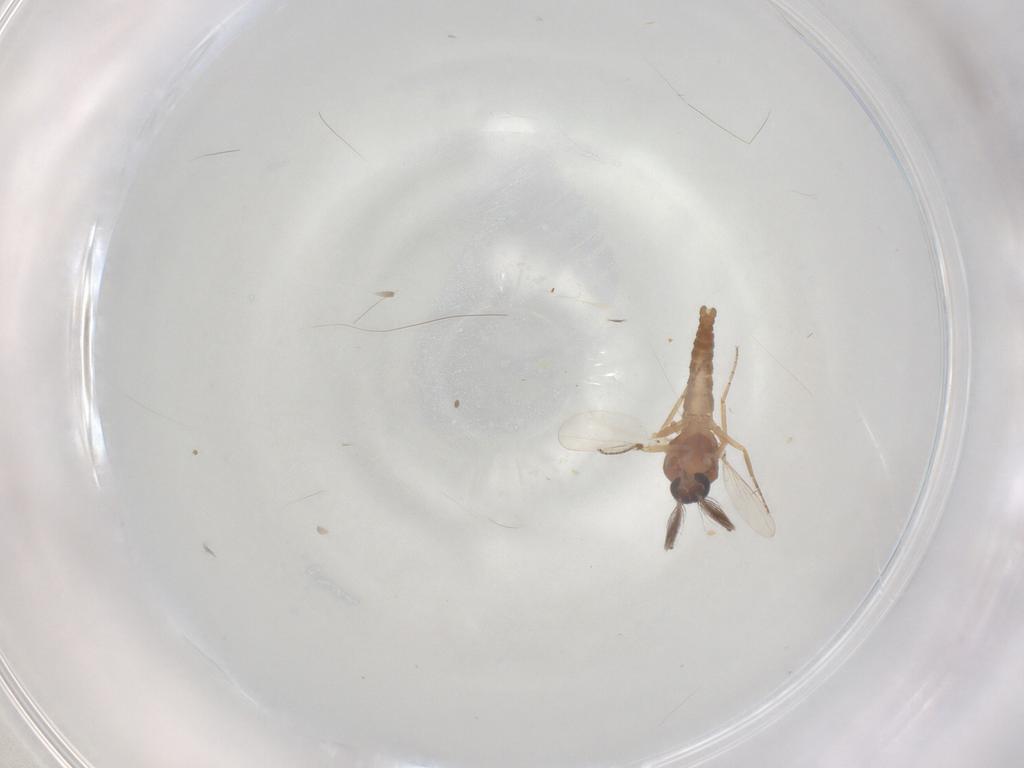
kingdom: Animalia
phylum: Arthropoda
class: Insecta
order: Diptera
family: Ceratopogonidae
